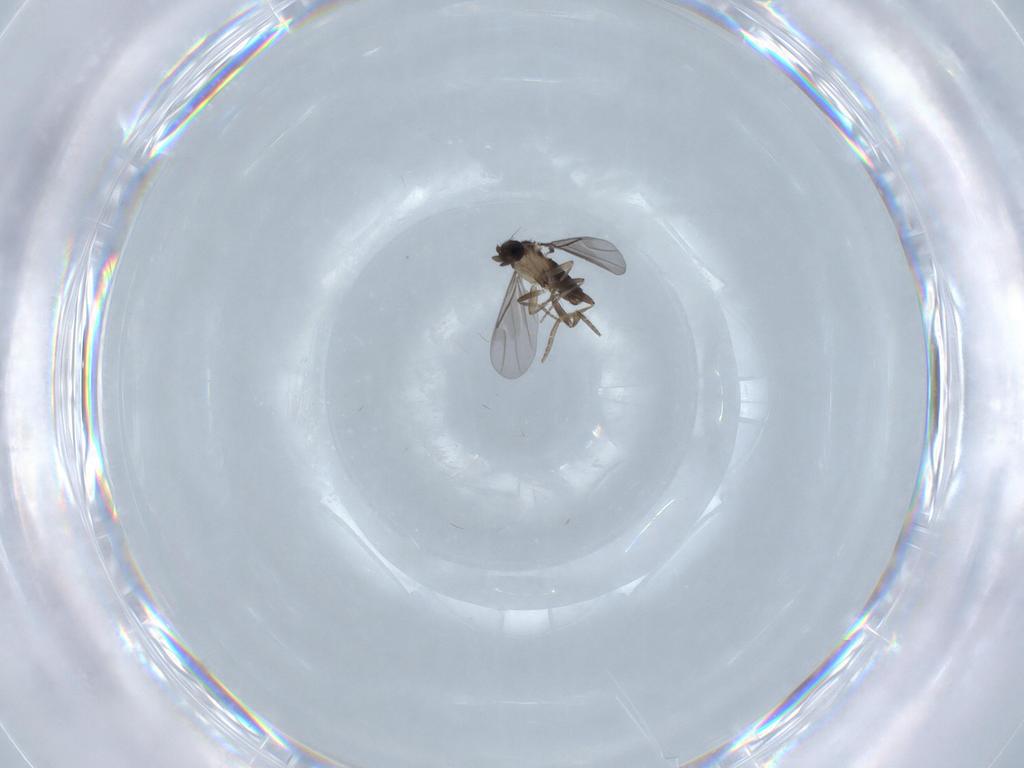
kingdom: Animalia
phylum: Arthropoda
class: Insecta
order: Diptera
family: Phoridae
